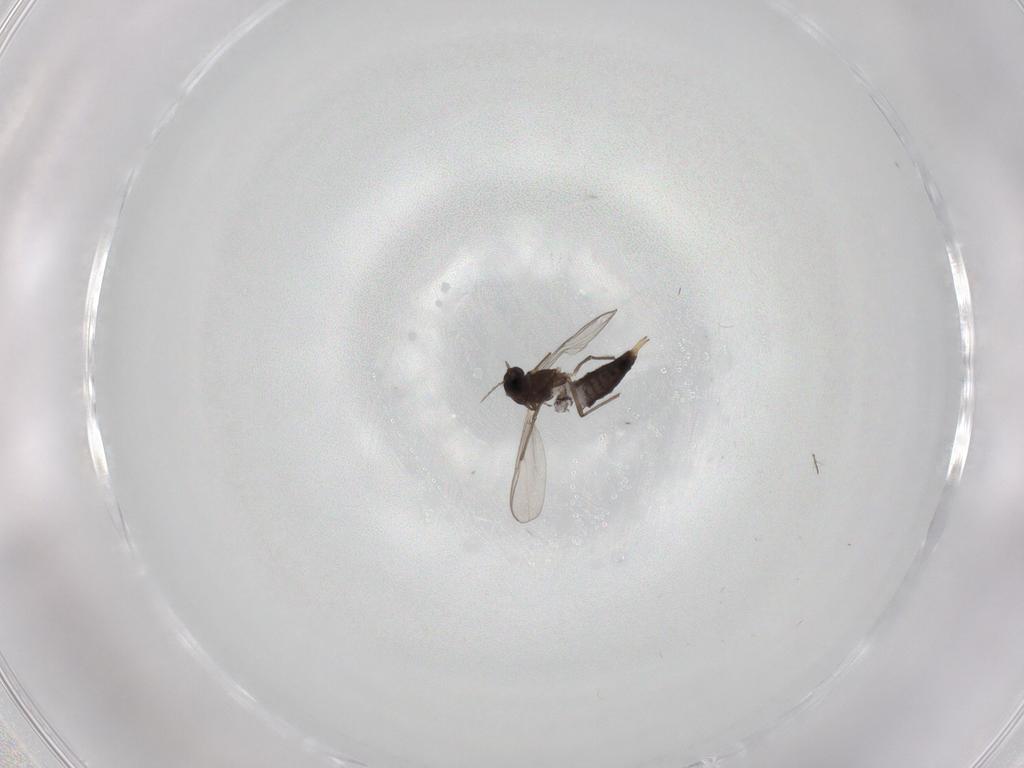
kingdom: Animalia
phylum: Arthropoda
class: Insecta
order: Diptera
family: Chironomidae
